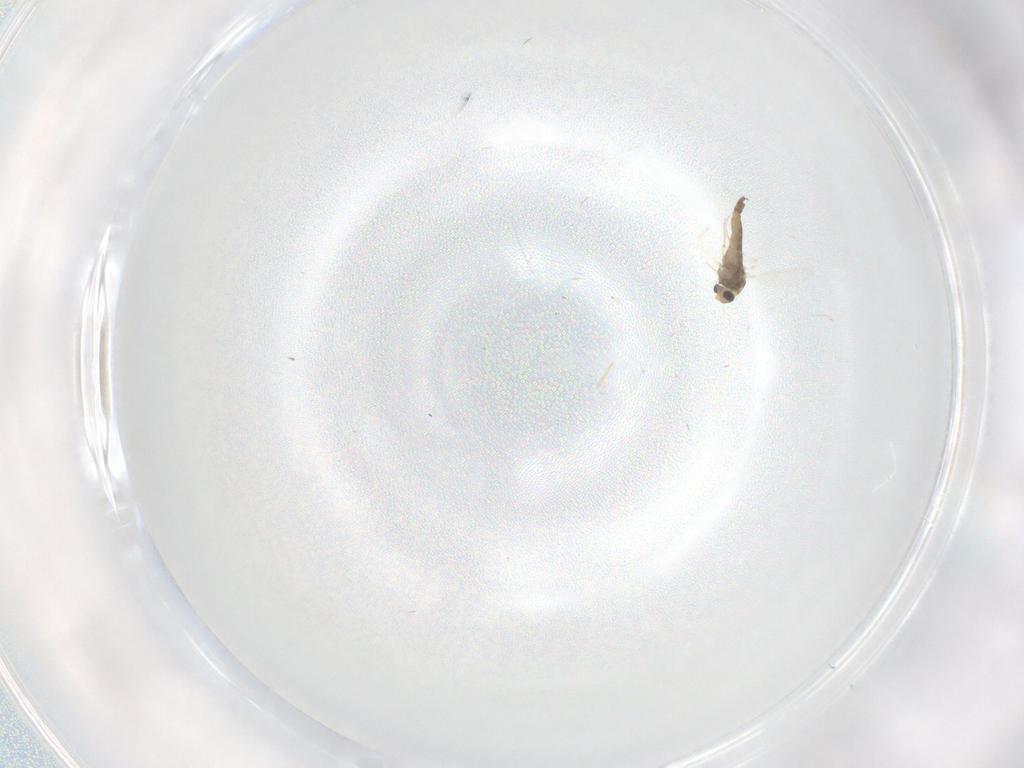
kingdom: Animalia
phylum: Arthropoda
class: Insecta
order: Diptera
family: Chironomidae
